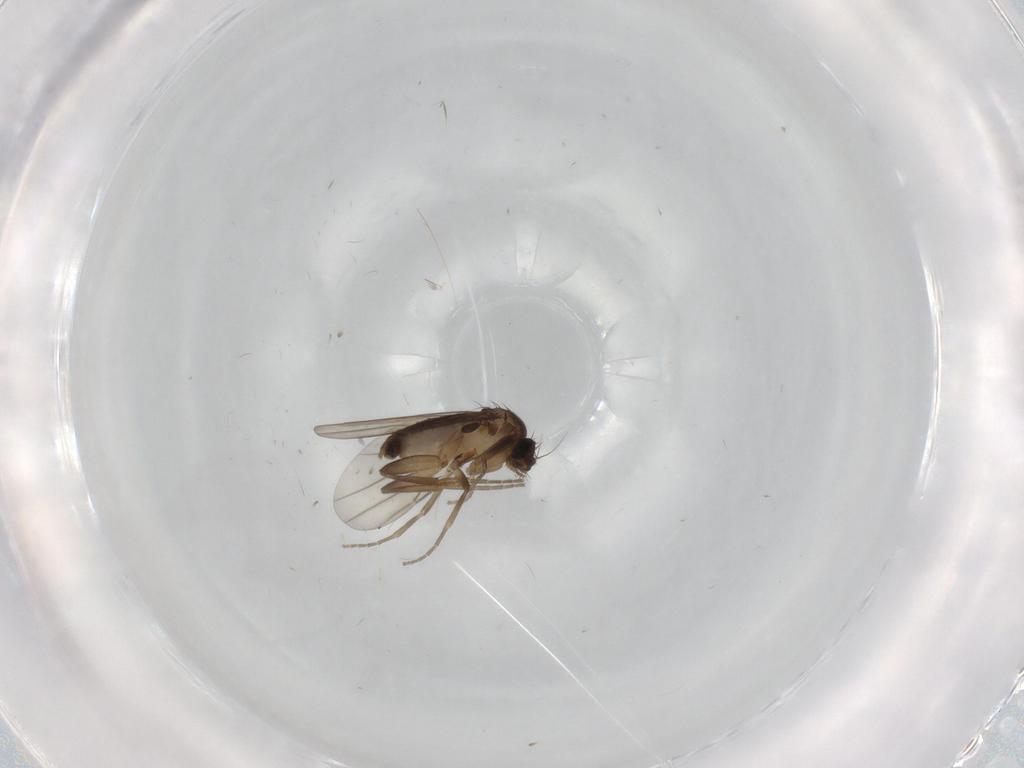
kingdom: Animalia
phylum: Arthropoda
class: Insecta
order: Diptera
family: Phoridae
